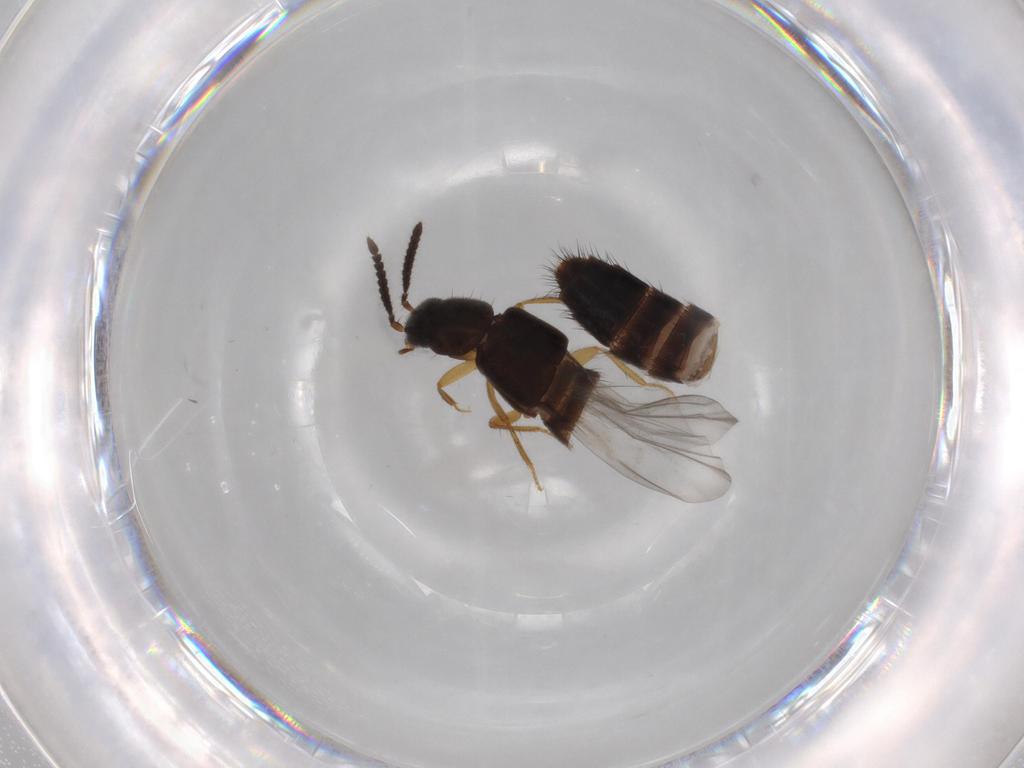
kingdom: Animalia
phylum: Arthropoda
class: Insecta
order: Coleoptera
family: Staphylinidae
